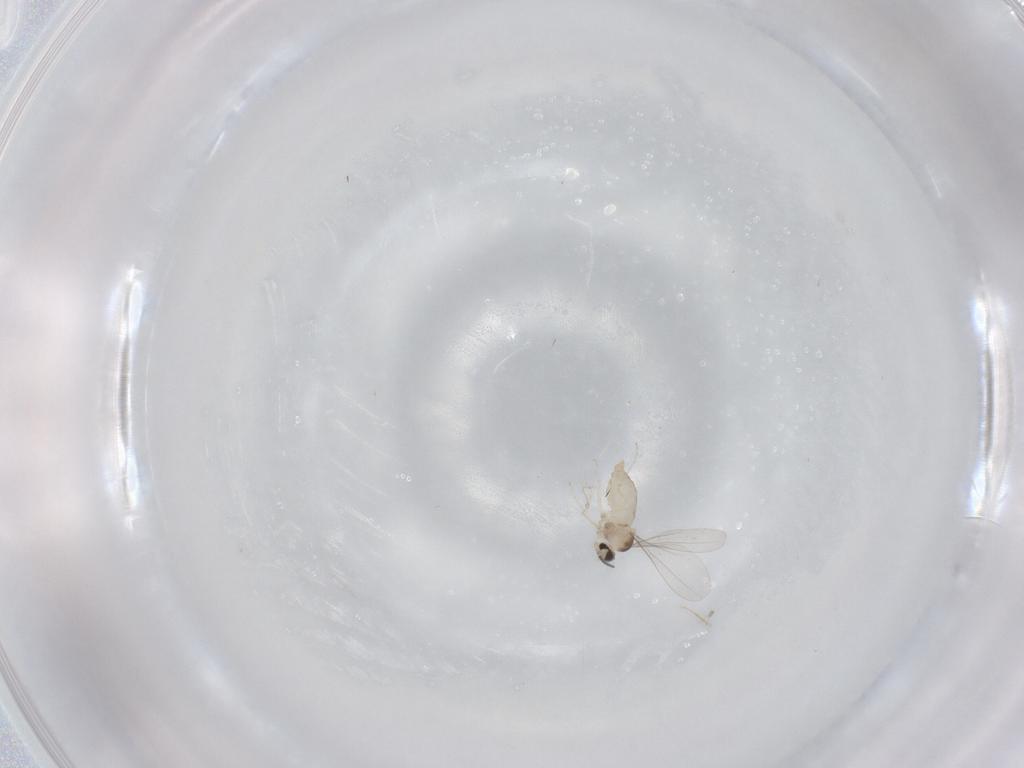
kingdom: Animalia
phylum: Arthropoda
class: Insecta
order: Diptera
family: Cecidomyiidae
